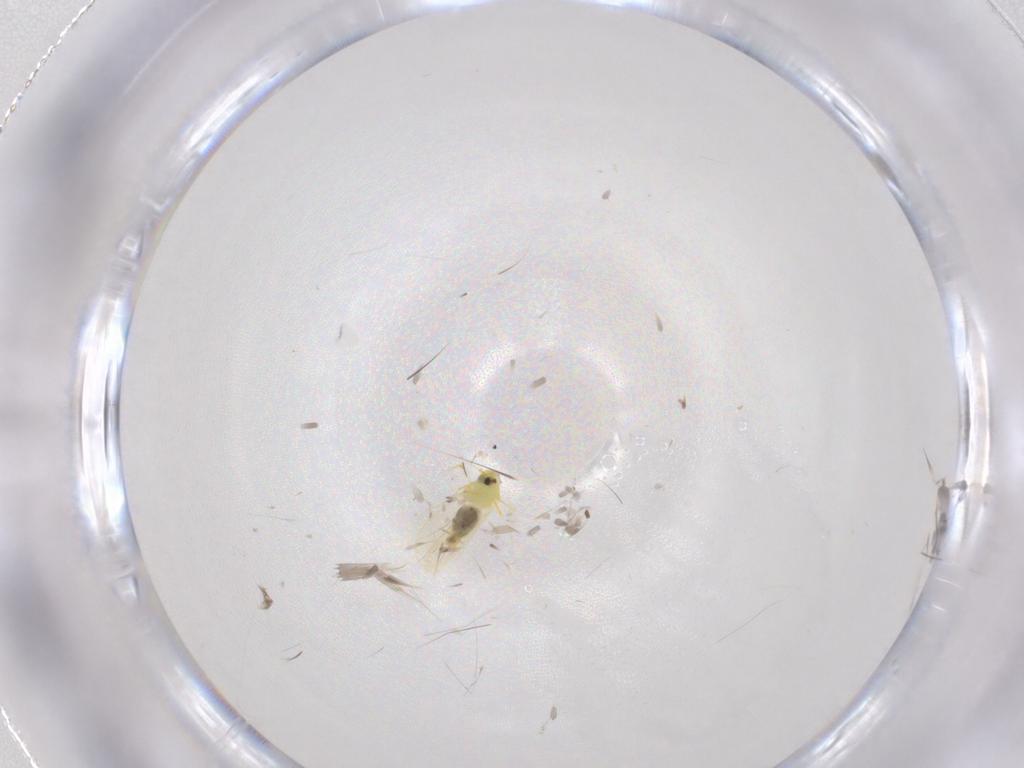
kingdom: Animalia
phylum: Arthropoda
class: Insecta
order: Hemiptera
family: Aleyrodidae
